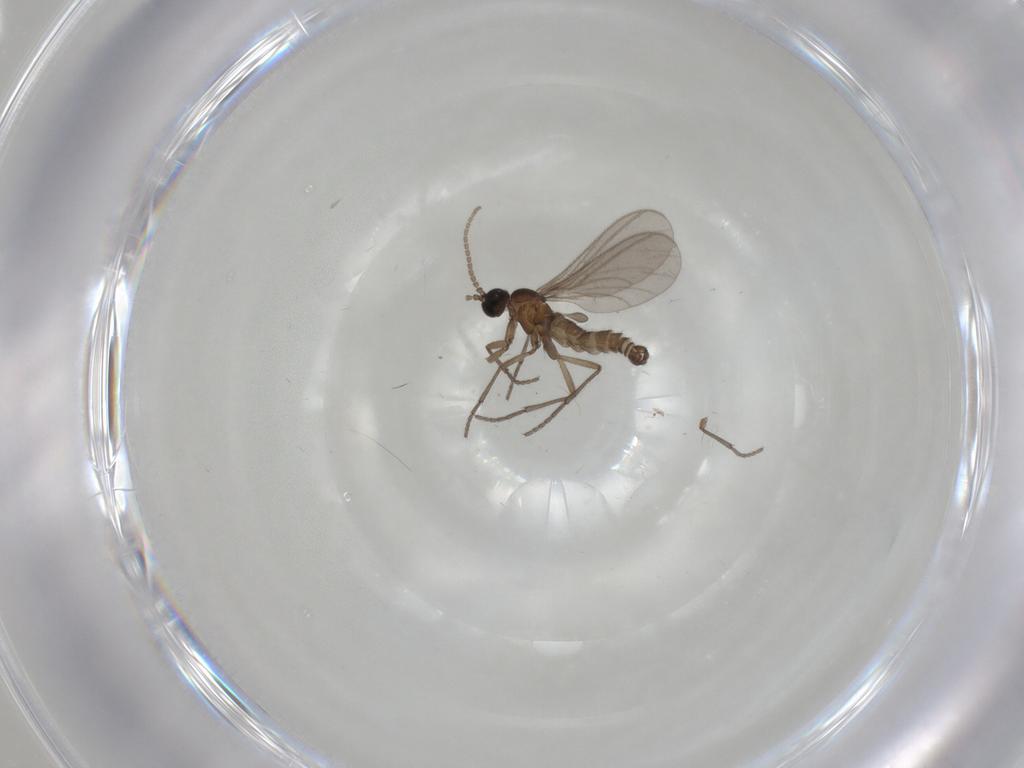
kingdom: Animalia
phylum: Arthropoda
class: Insecta
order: Diptera
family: Sciaridae
